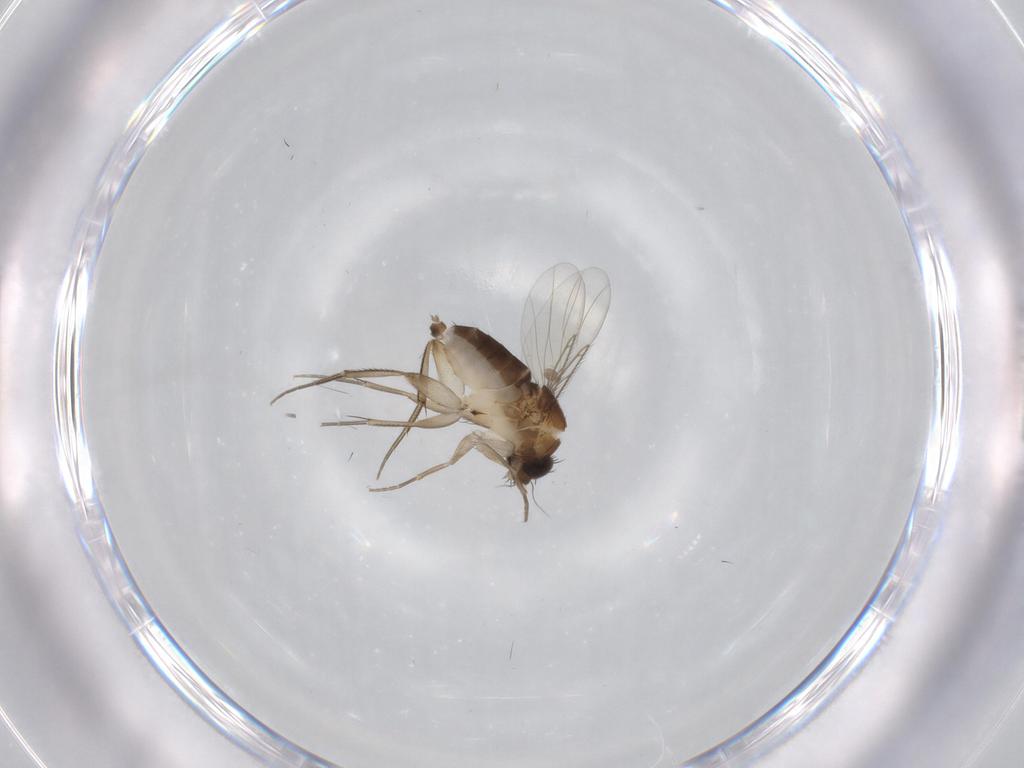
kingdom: Animalia
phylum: Arthropoda
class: Insecta
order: Diptera
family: Phoridae
